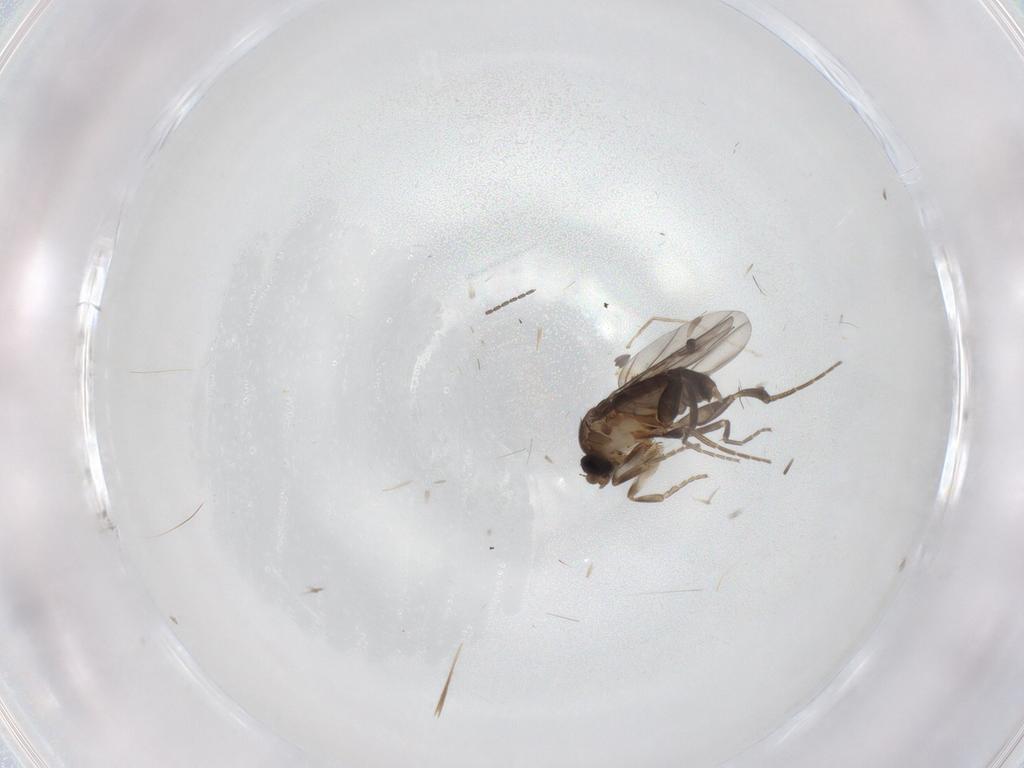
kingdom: Animalia
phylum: Arthropoda
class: Insecta
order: Diptera
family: Phoridae
